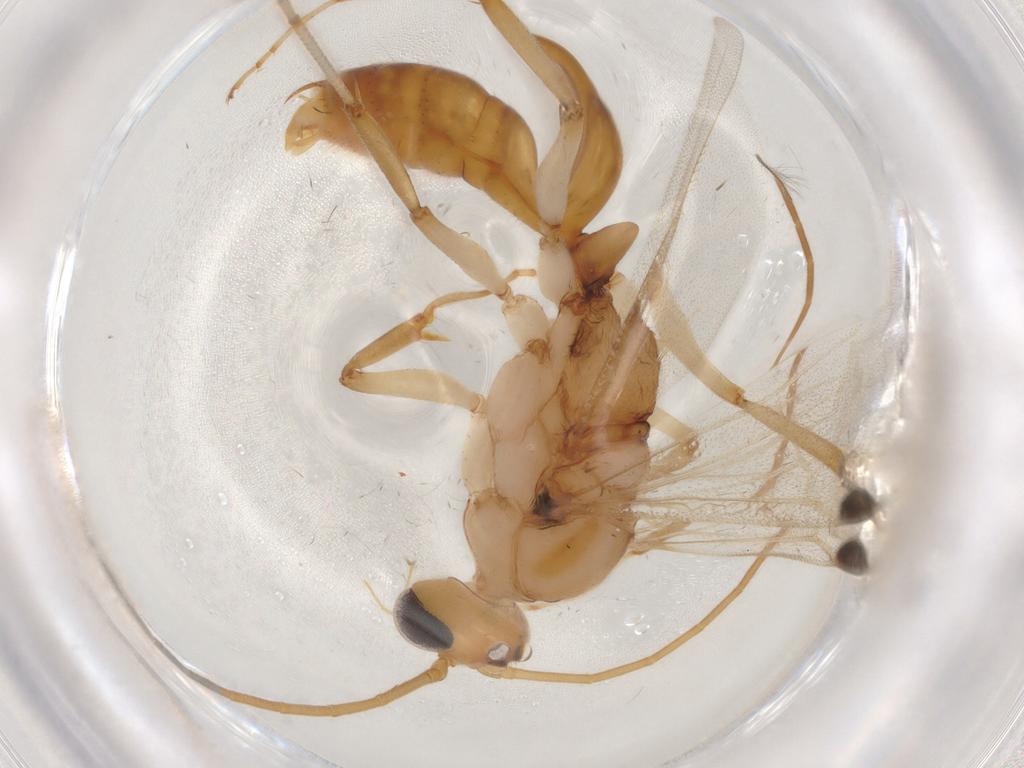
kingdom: Animalia
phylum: Arthropoda
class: Insecta
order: Hymenoptera
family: Formicidae
